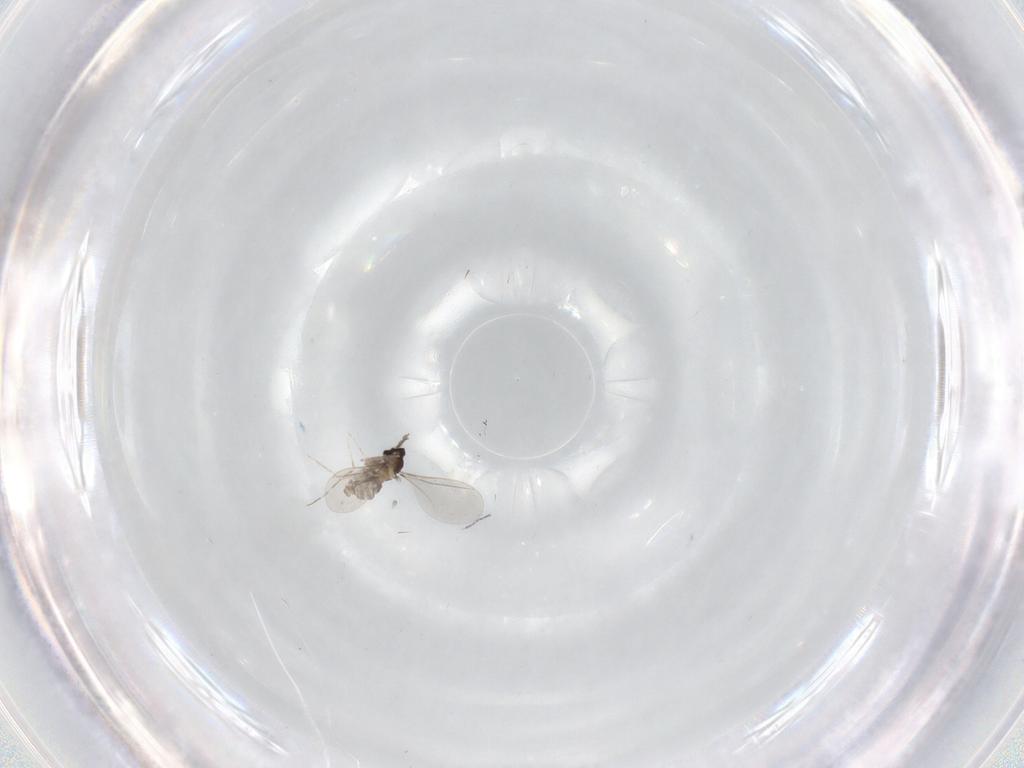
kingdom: Animalia
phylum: Arthropoda
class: Insecta
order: Diptera
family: Cecidomyiidae
